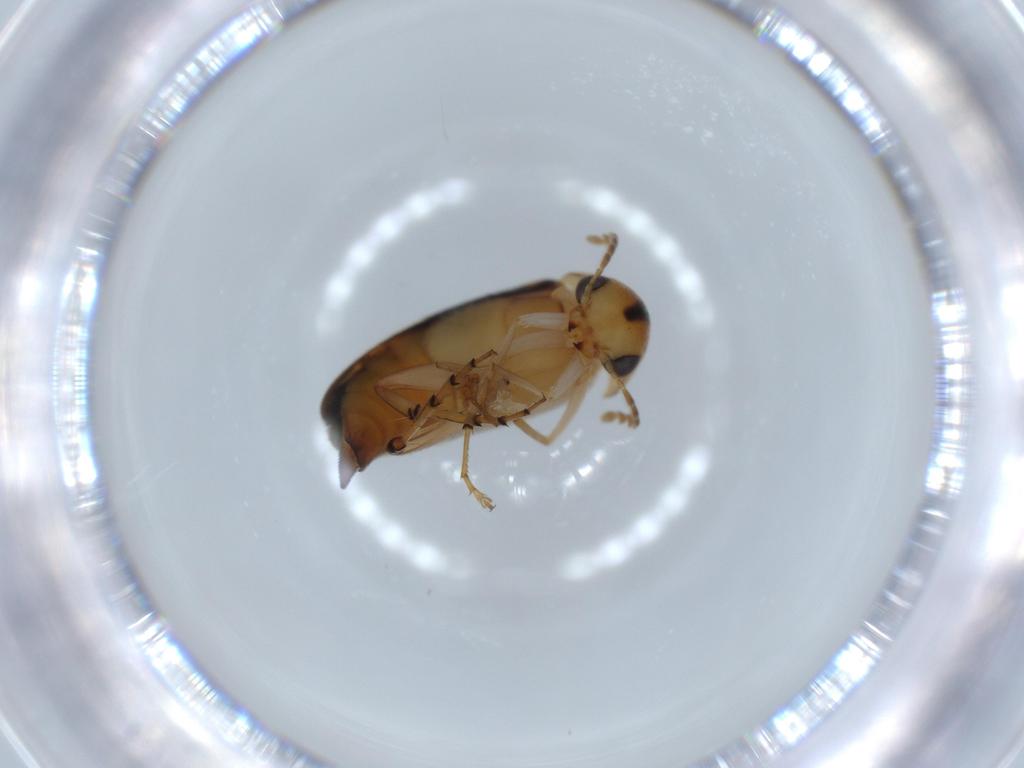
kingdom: Animalia
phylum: Arthropoda
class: Insecta
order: Coleoptera
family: Mordellidae
